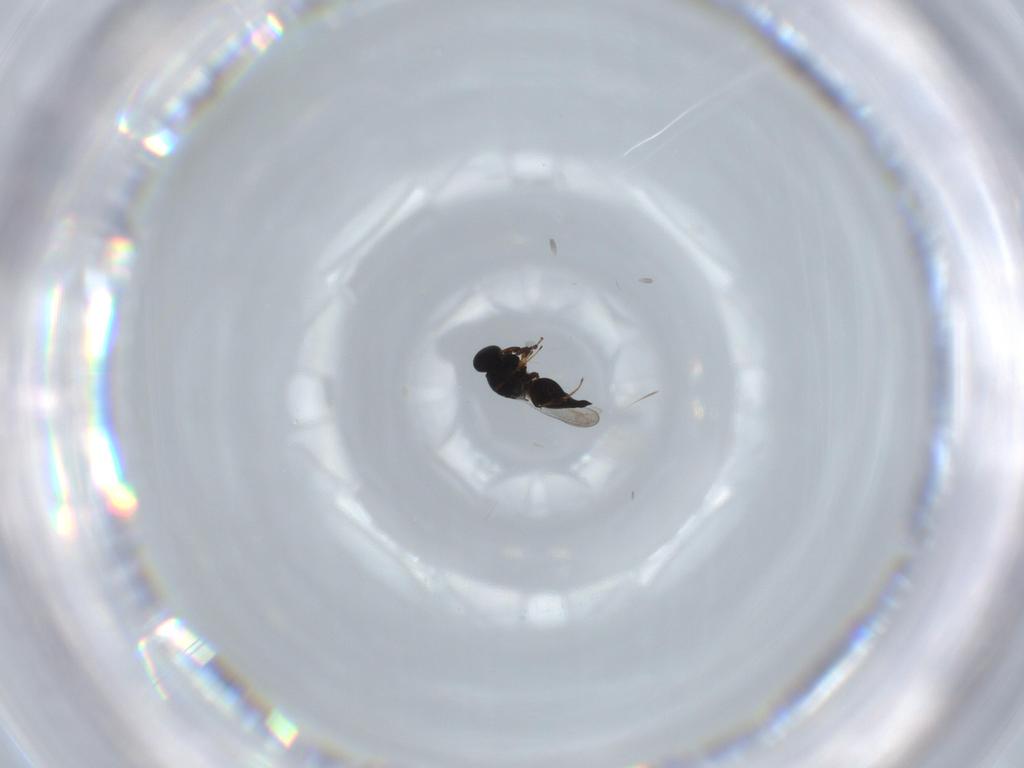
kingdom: Animalia
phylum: Arthropoda
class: Insecta
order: Hymenoptera
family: Platygastridae
